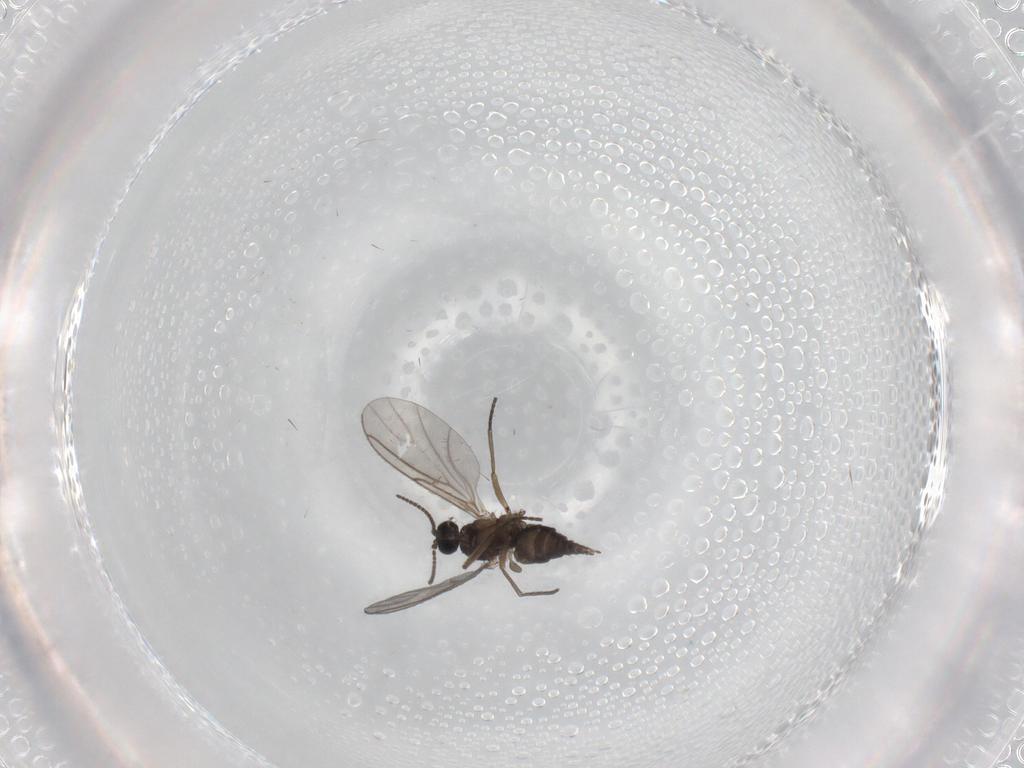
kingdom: Animalia
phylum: Arthropoda
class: Insecta
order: Diptera
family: Sciaridae
